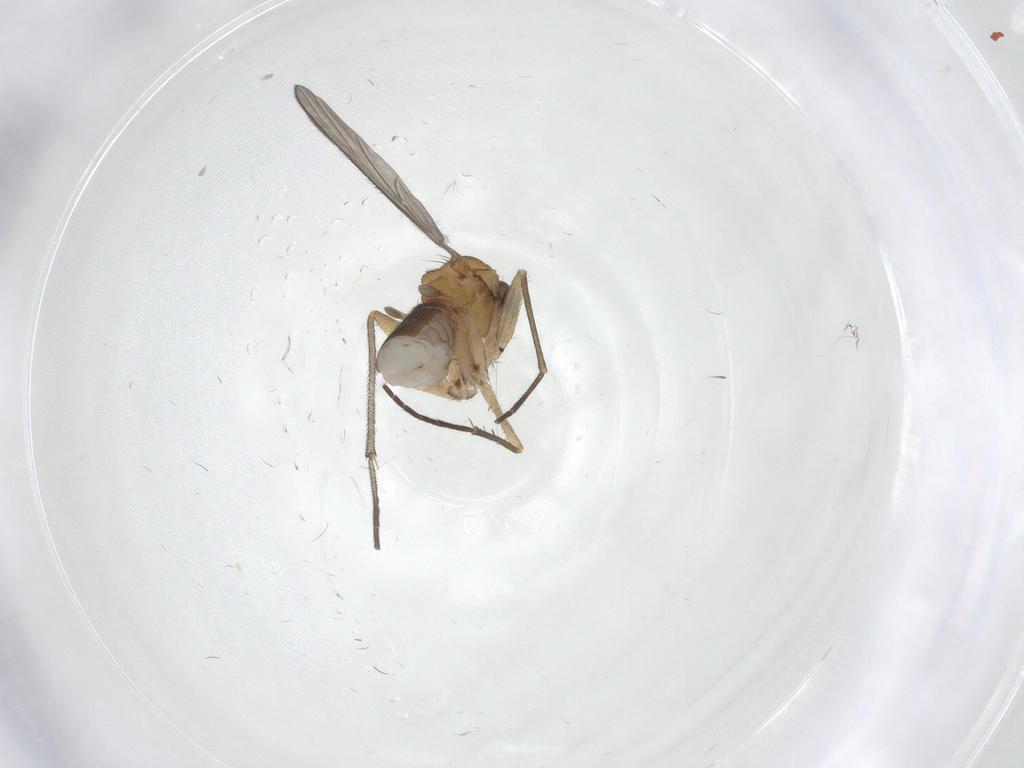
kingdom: Animalia
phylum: Arthropoda
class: Insecta
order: Diptera
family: Sciaridae
